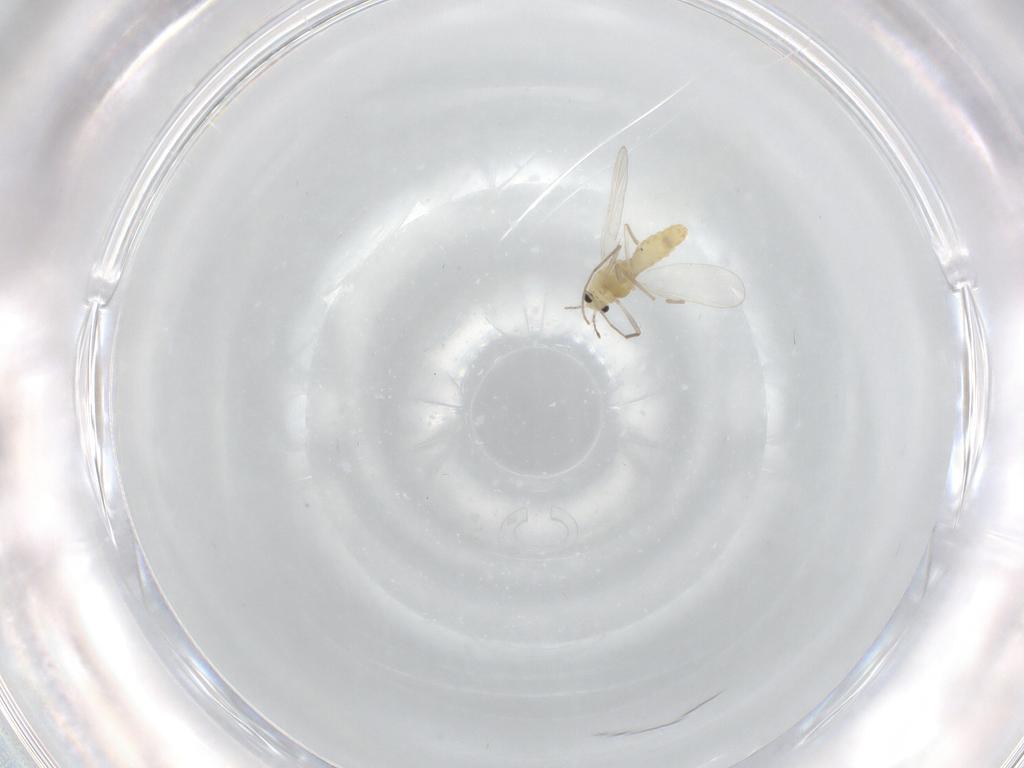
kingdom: Animalia
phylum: Arthropoda
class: Insecta
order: Diptera
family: Chironomidae
